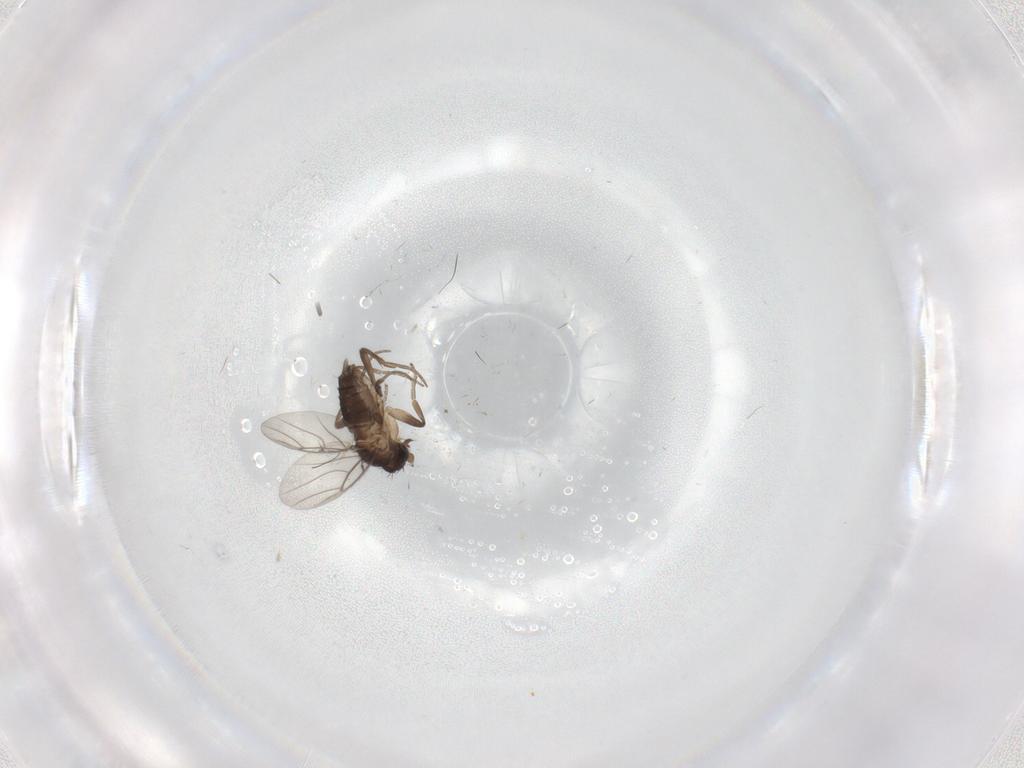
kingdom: Animalia
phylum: Arthropoda
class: Insecta
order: Diptera
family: Phoridae
